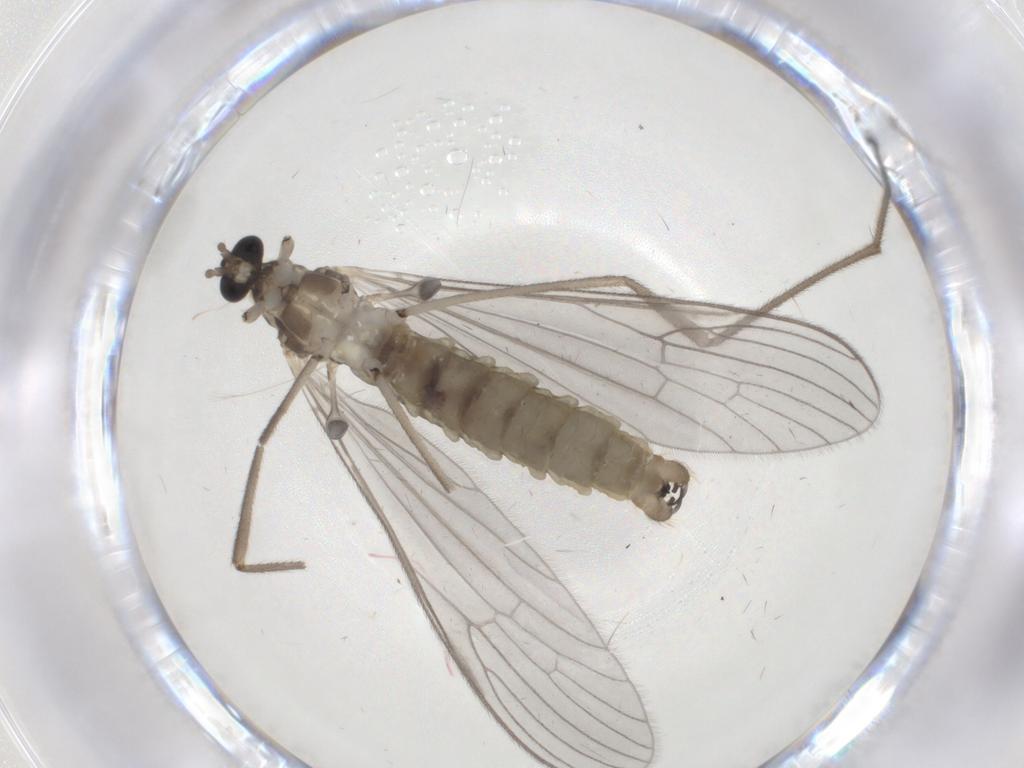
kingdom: Animalia
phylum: Arthropoda
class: Insecta
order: Diptera
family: Limoniidae
